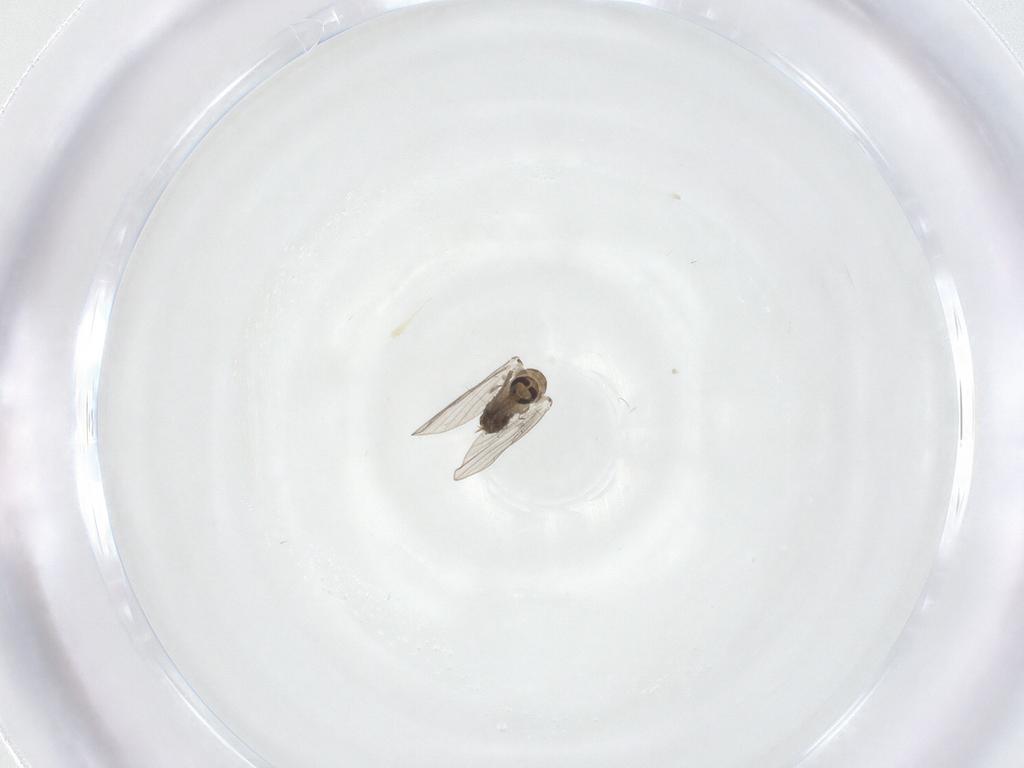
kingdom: Animalia
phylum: Arthropoda
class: Insecta
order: Diptera
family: Psychodidae
